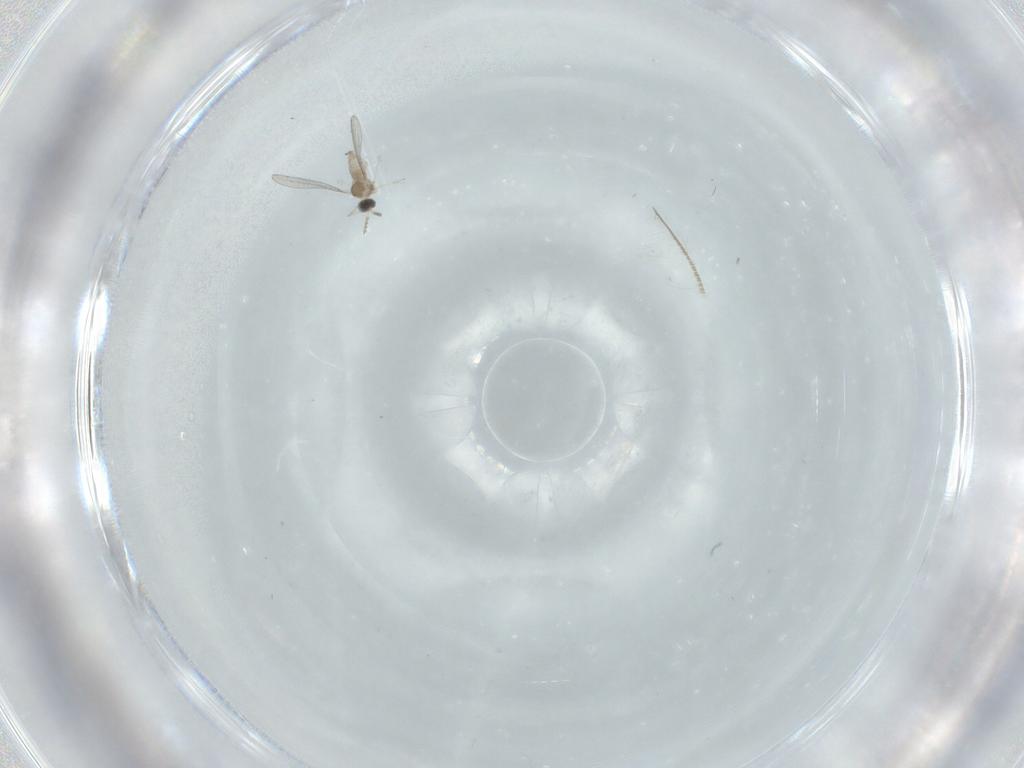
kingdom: Animalia
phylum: Arthropoda
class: Insecta
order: Diptera
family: Cecidomyiidae
